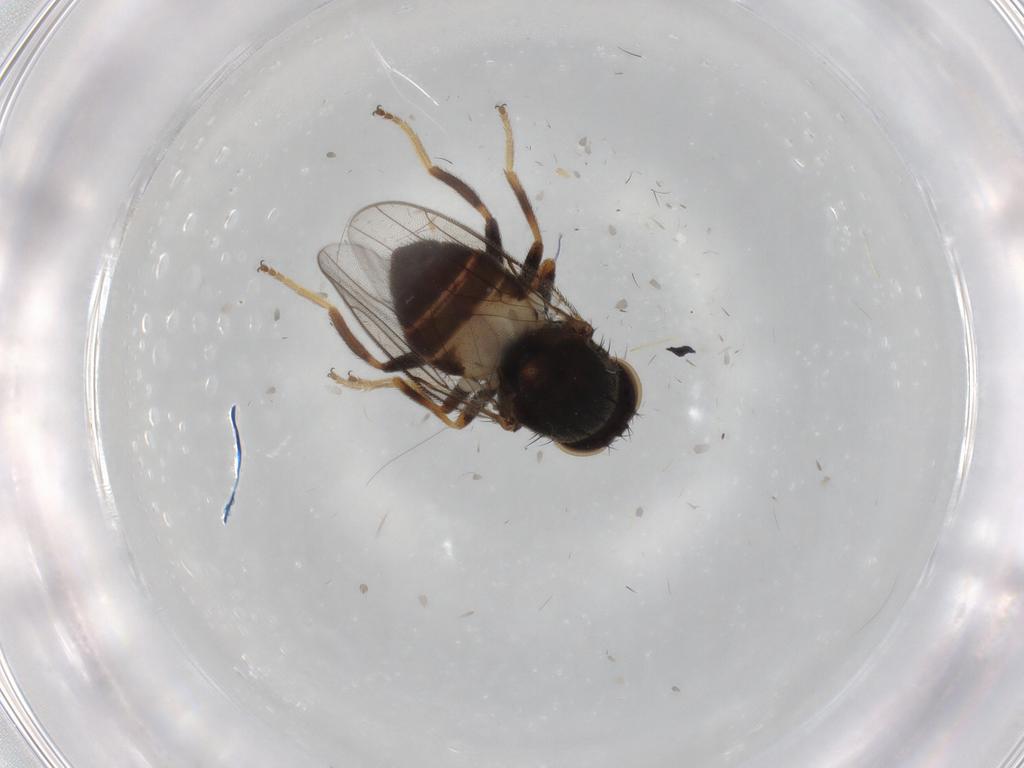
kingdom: Animalia
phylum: Arthropoda
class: Insecta
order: Diptera
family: Chloropidae
